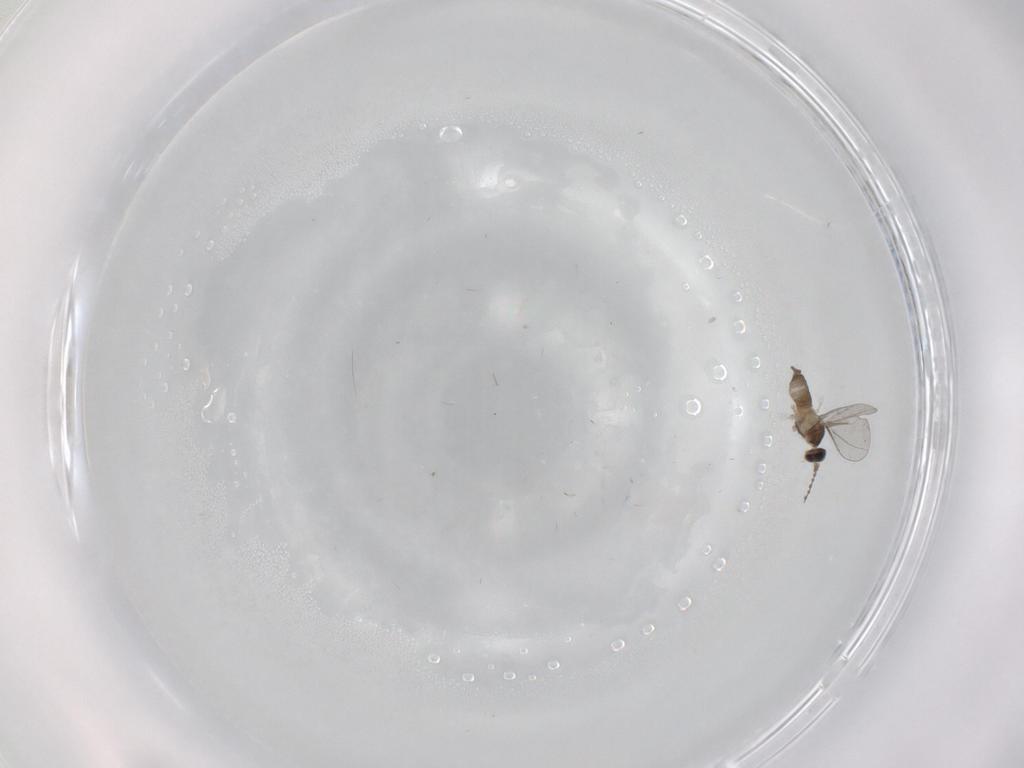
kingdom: Animalia
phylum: Arthropoda
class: Insecta
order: Diptera
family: Cecidomyiidae
